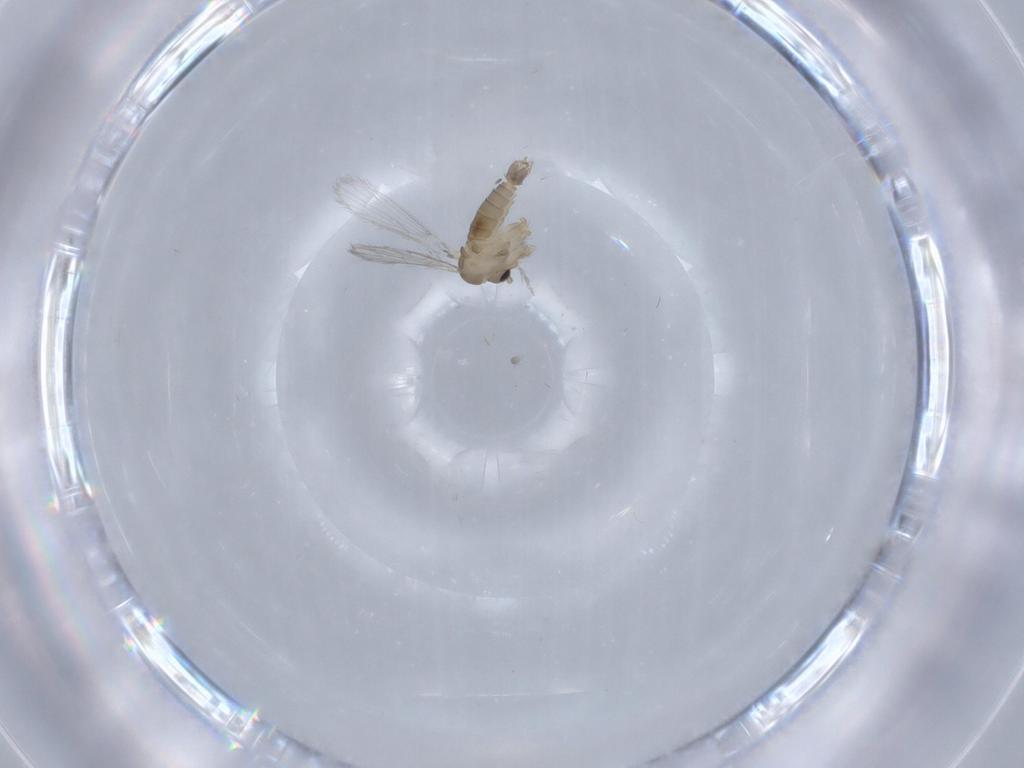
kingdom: Animalia
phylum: Arthropoda
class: Insecta
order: Diptera
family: Psychodidae
